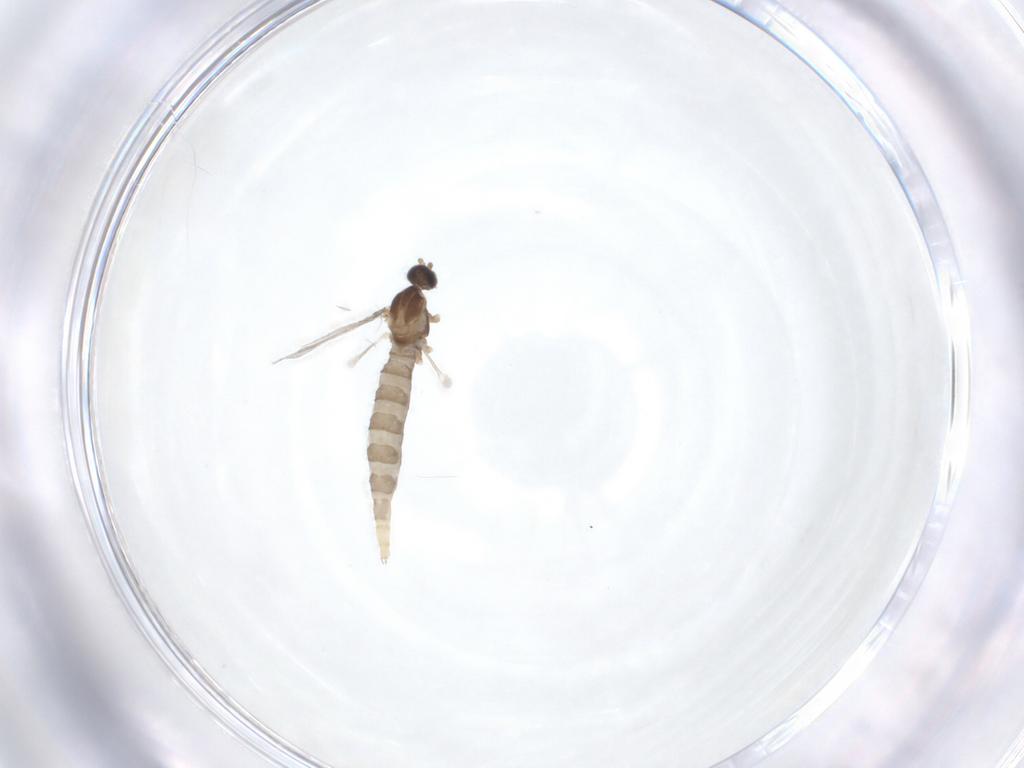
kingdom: Animalia
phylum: Arthropoda
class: Insecta
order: Diptera
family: Cecidomyiidae
